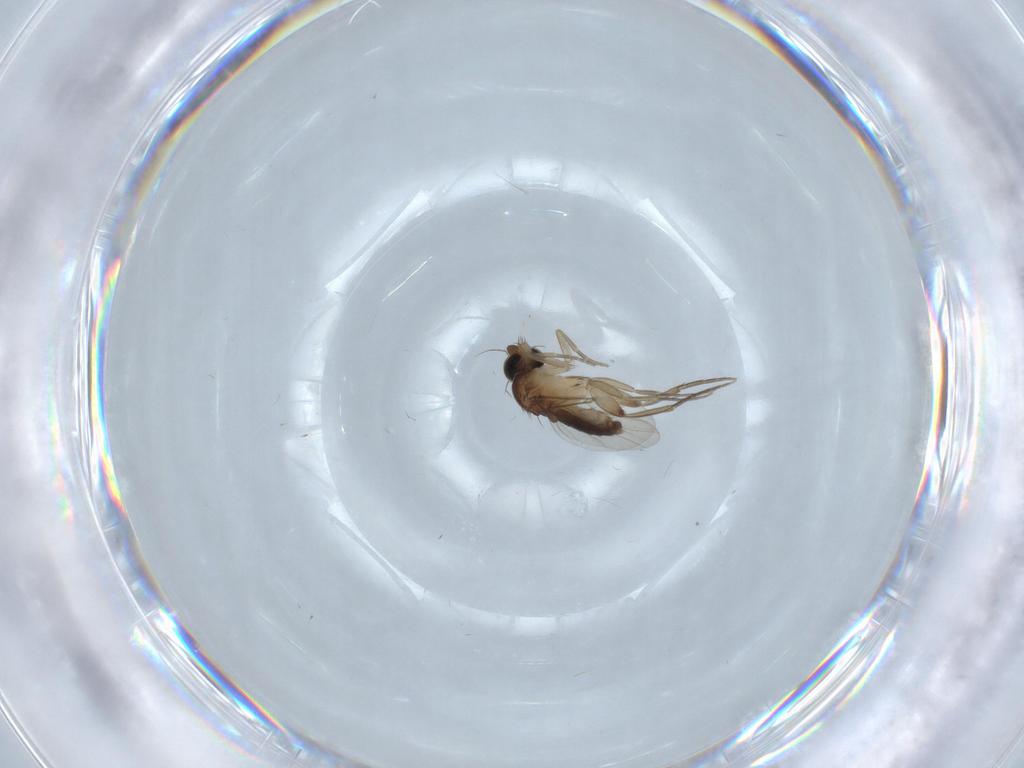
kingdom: Animalia
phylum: Arthropoda
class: Insecta
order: Diptera
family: Phoridae
